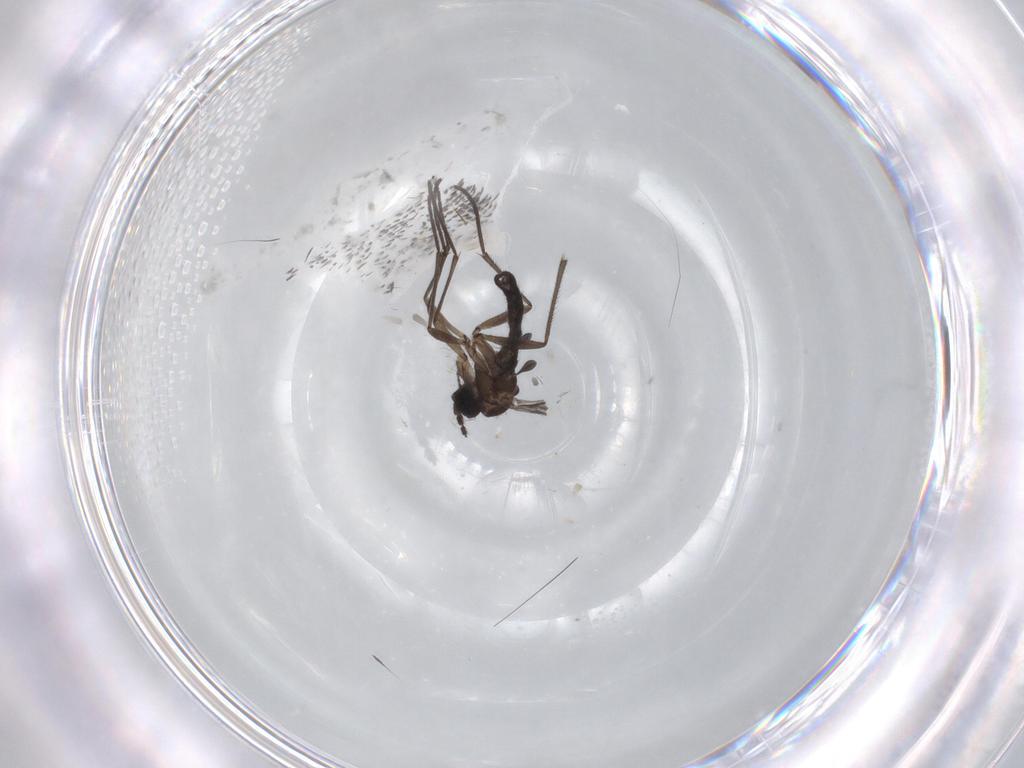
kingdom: Animalia
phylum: Arthropoda
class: Insecta
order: Diptera
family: Sciaridae
